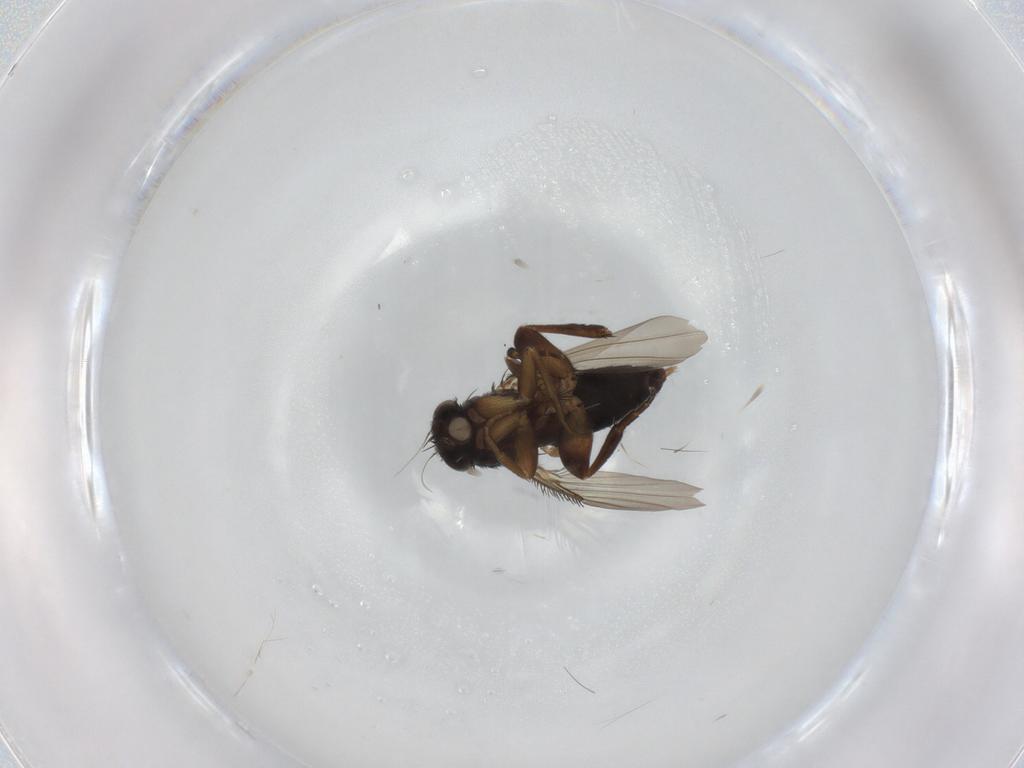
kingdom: Animalia
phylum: Arthropoda
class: Insecta
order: Diptera
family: Phoridae
